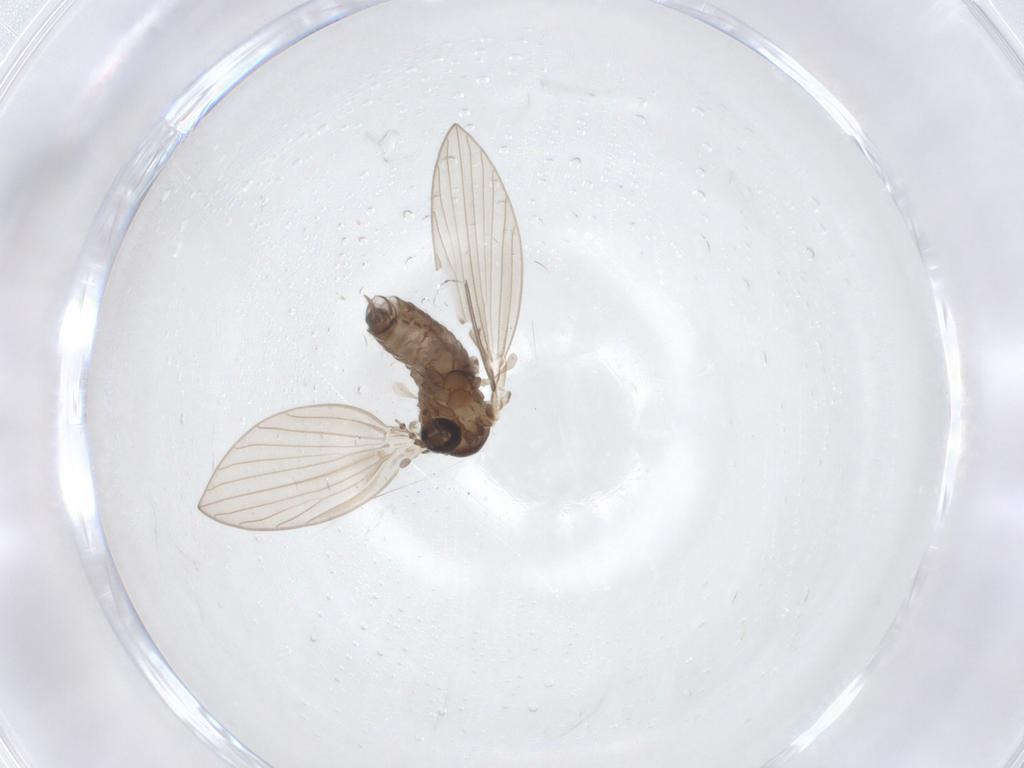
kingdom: Animalia
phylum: Arthropoda
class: Insecta
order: Diptera
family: Psychodidae
